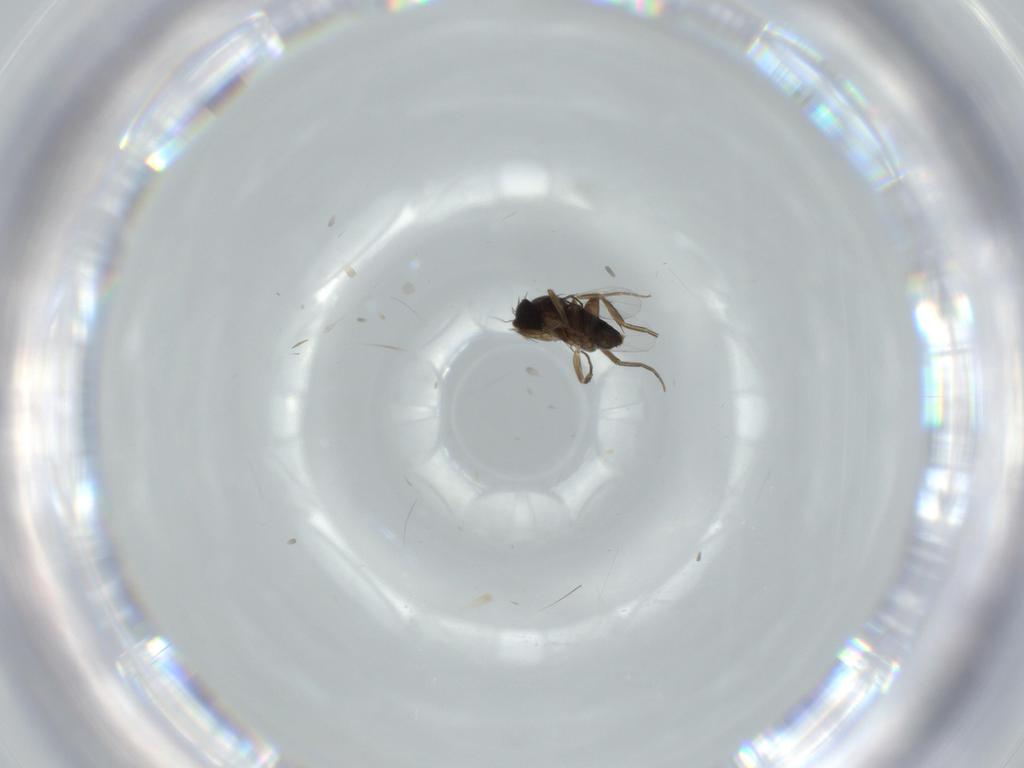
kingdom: Animalia
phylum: Arthropoda
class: Insecta
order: Diptera
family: Phoridae
